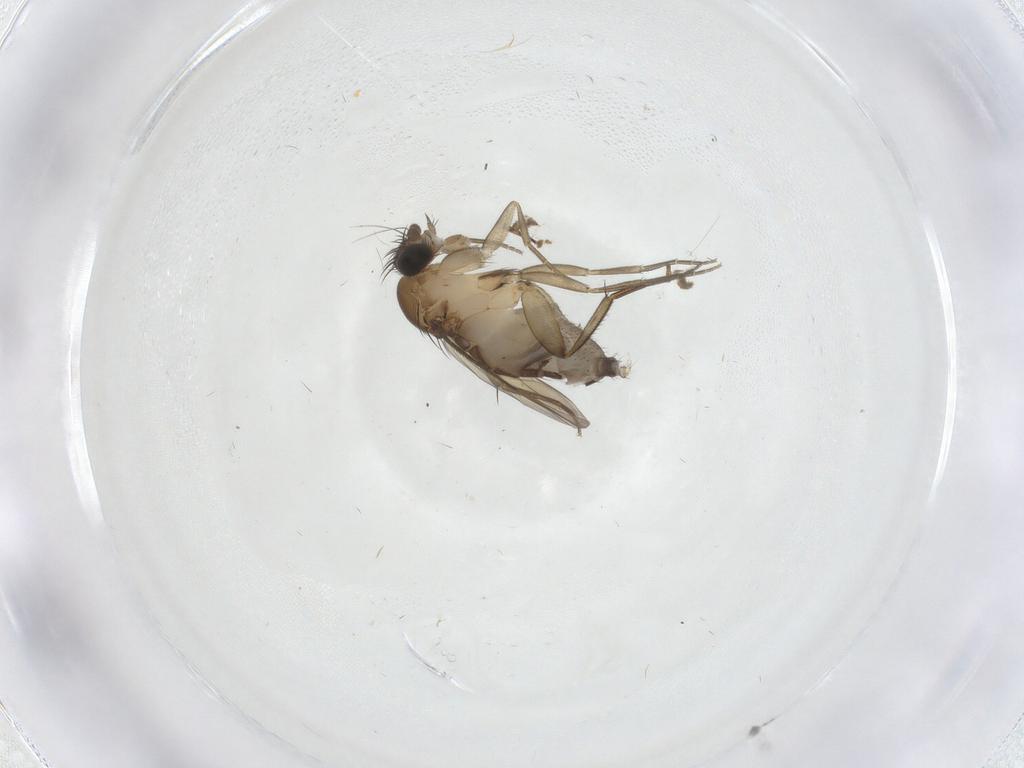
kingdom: Animalia
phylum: Arthropoda
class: Insecta
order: Diptera
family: Phoridae
